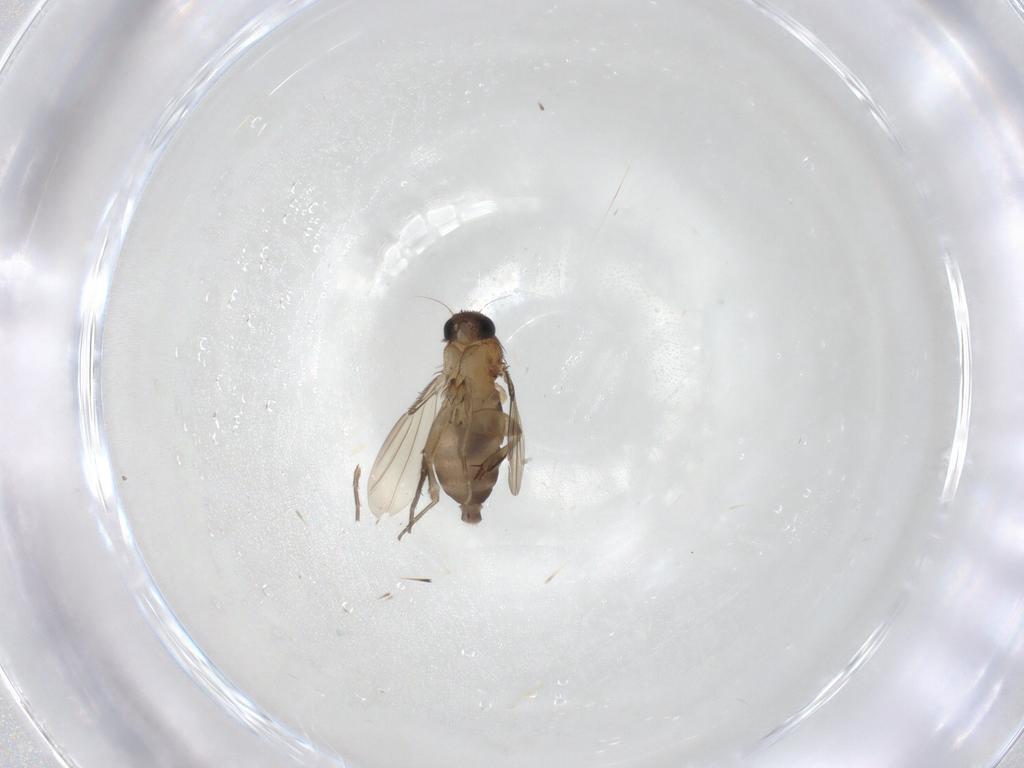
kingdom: Animalia
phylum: Arthropoda
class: Insecta
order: Diptera
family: Phoridae
